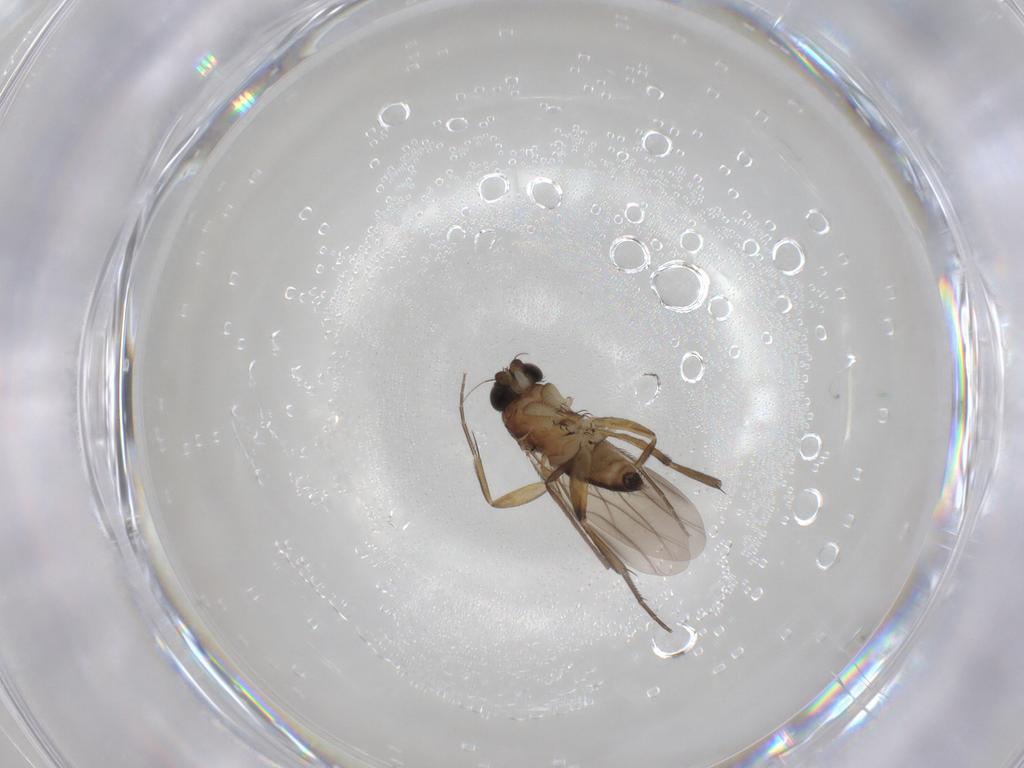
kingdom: Animalia
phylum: Arthropoda
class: Insecta
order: Diptera
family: Phoridae
